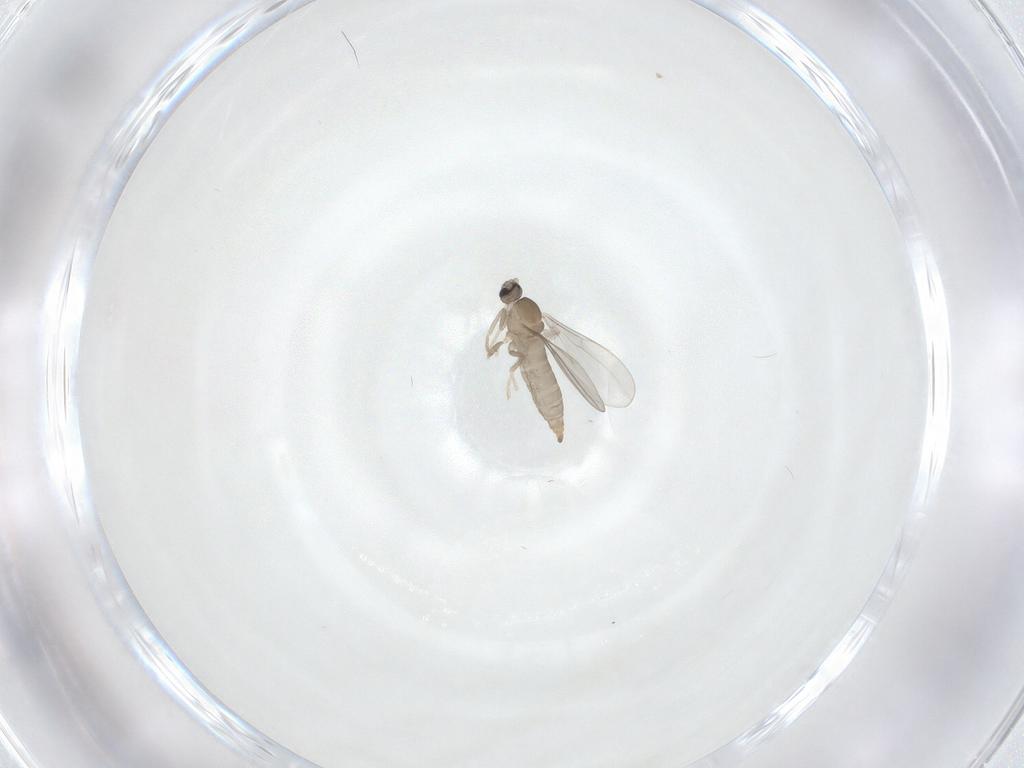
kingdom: Animalia
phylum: Arthropoda
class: Insecta
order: Diptera
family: Cecidomyiidae
